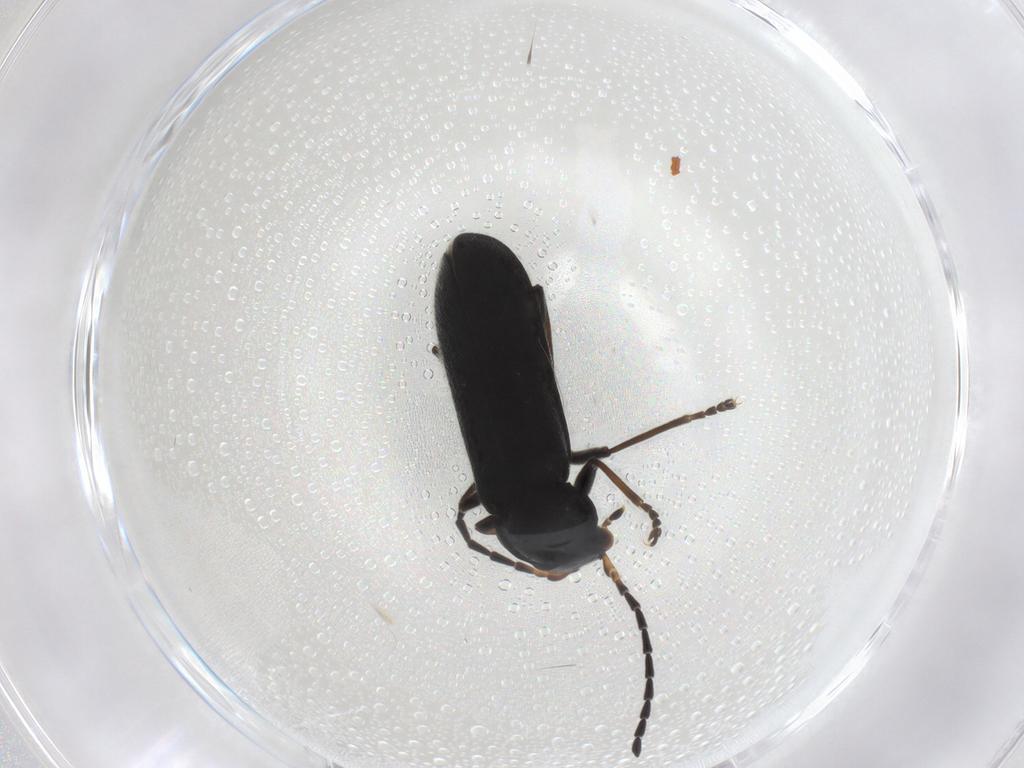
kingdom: Animalia
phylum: Arthropoda
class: Insecta
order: Coleoptera
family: Cantharidae
